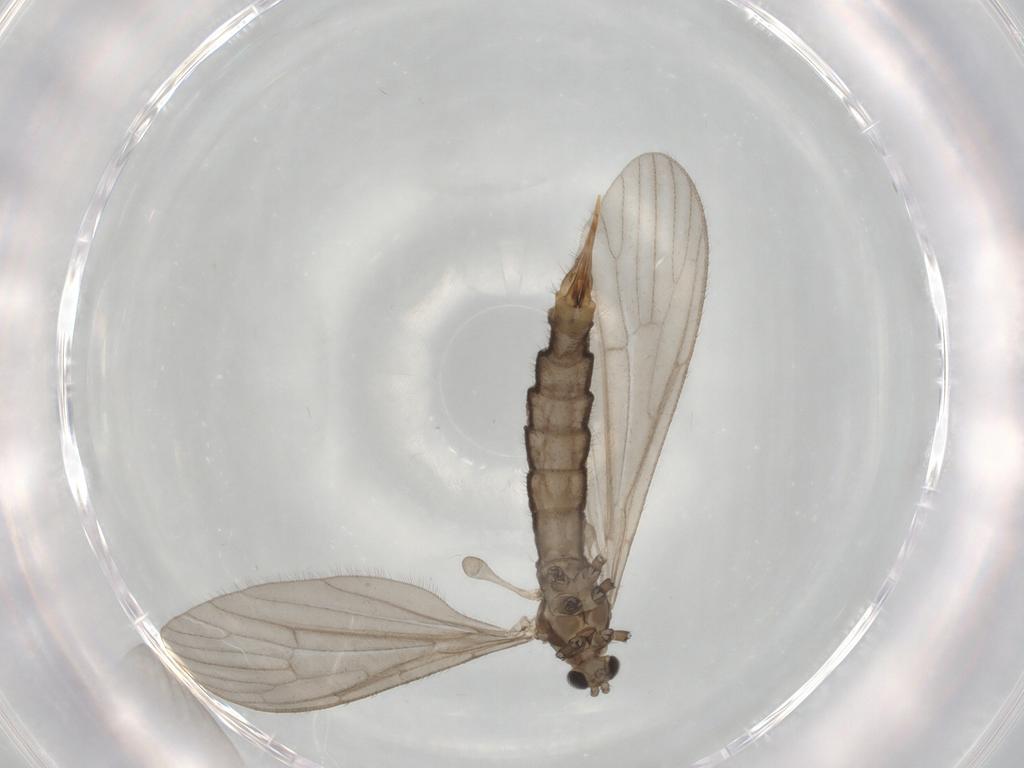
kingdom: Animalia
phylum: Arthropoda
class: Insecta
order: Diptera
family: Limoniidae
